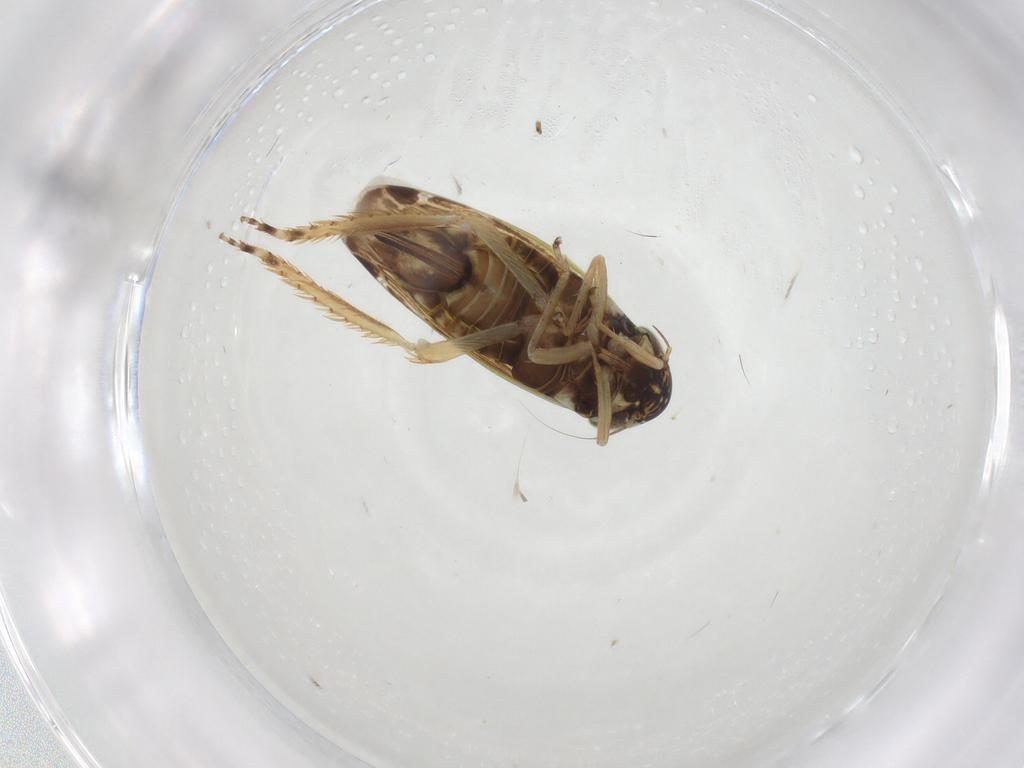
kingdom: Animalia
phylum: Arthropoda
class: Insecta
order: Hemiptera
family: Cicadellidae
